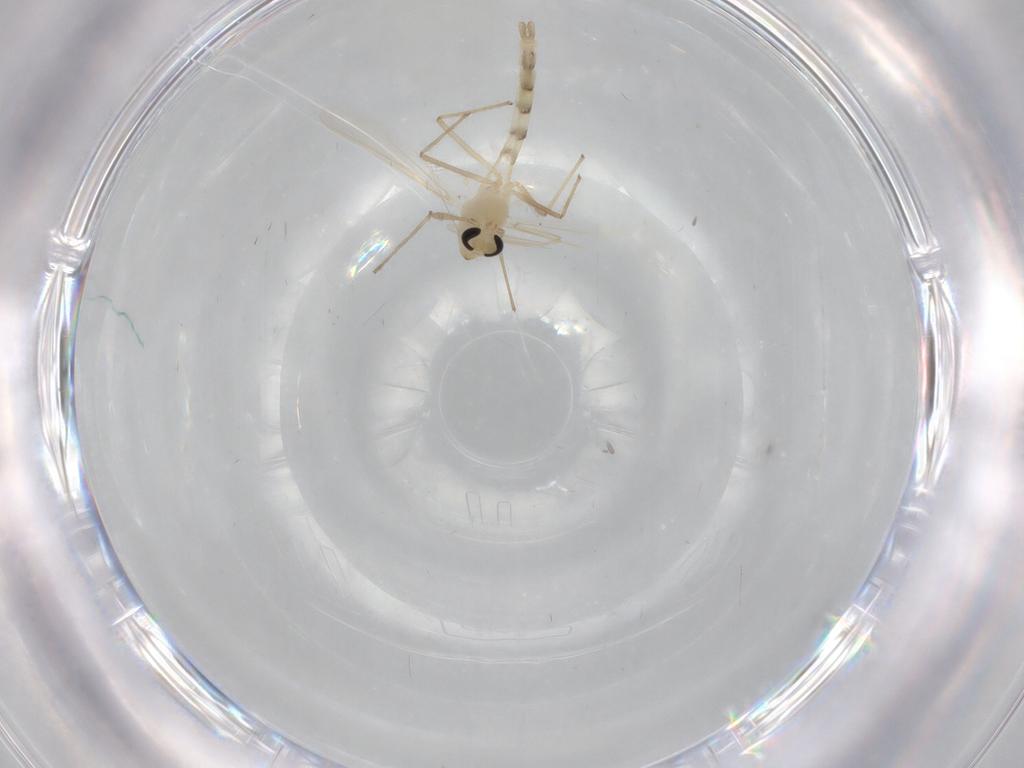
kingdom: Animalia
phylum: Arthropoda
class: Insecta
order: Diptera
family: Chironomidae
